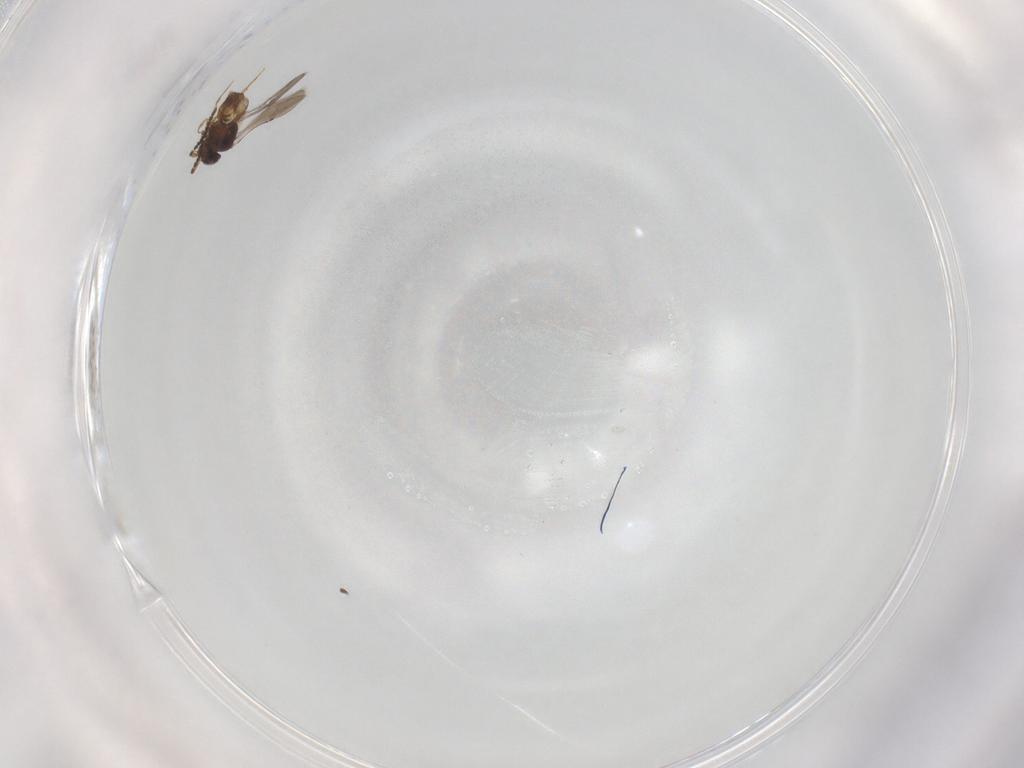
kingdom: Animalia
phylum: Arthropoda
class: Insecta
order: Hymenoptera
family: Ceraphronidae
